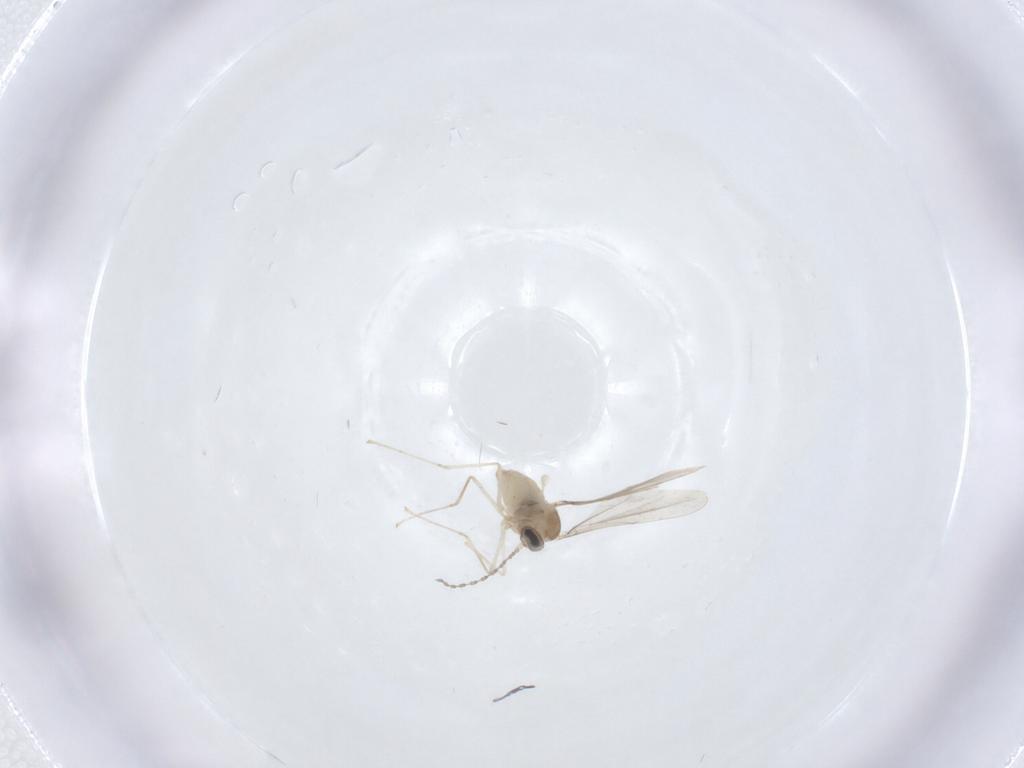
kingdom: Animalia
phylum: Arthropoda
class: Insecta
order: Diptera
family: Cecidomyiidae
